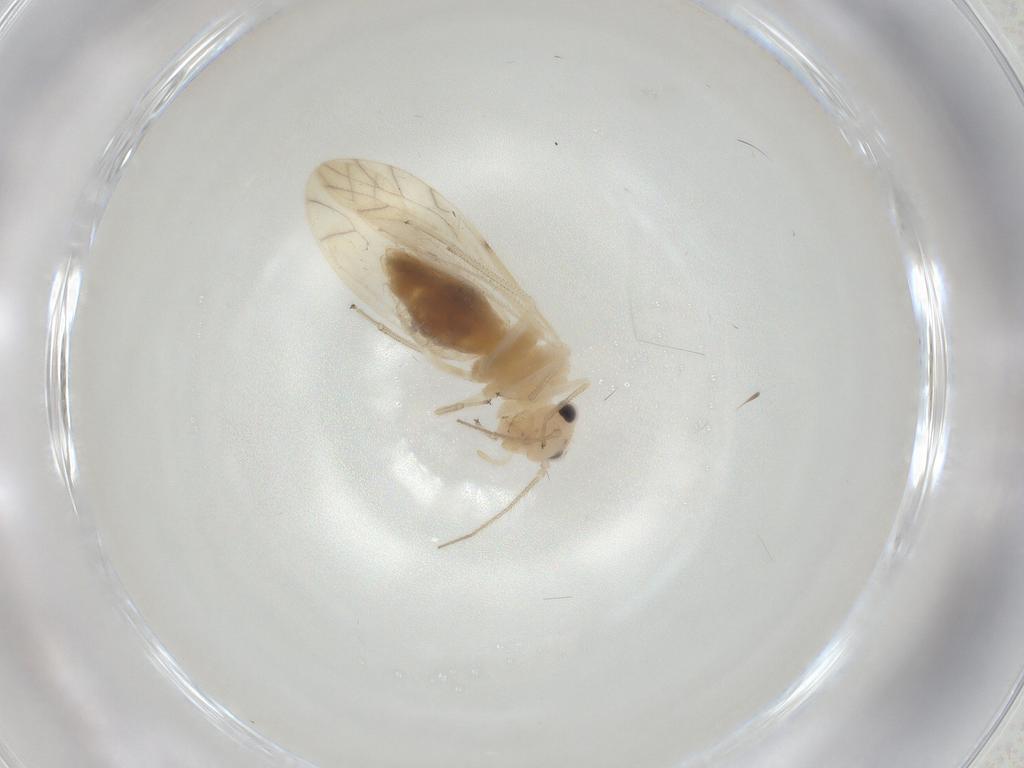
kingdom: Animalia
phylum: Arthropoda
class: Insecta
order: Psocodea
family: Caeciliusidae
